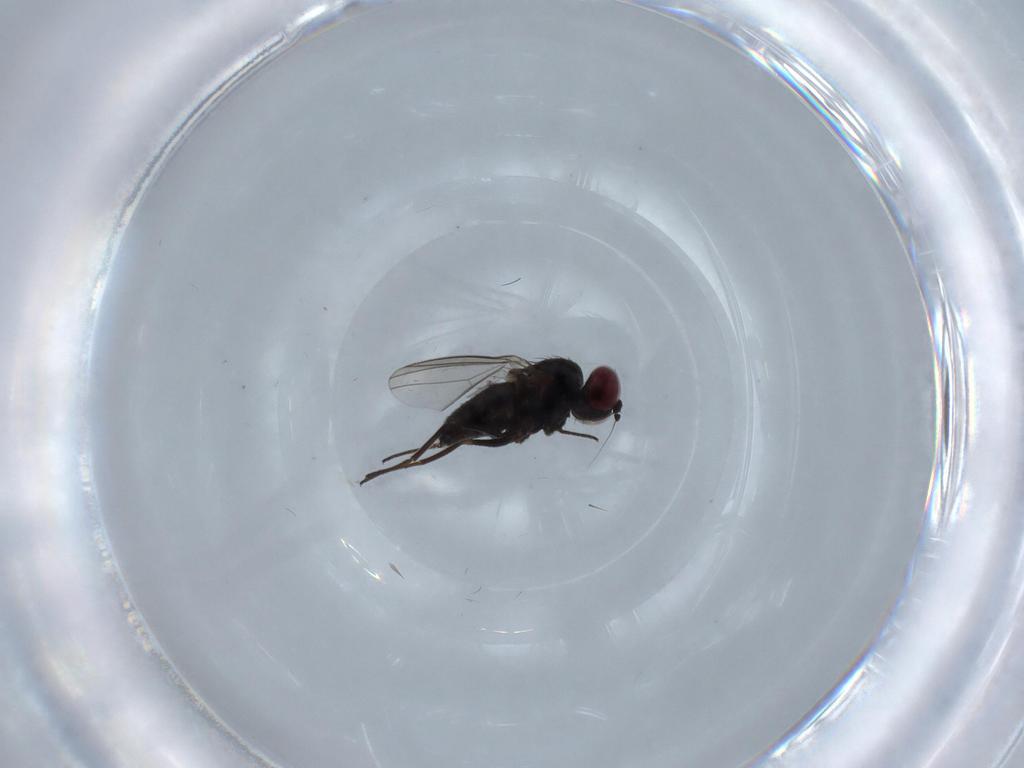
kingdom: Animalia
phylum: Arthropoda
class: Insecta
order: Diptera
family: Dolichopodidae
